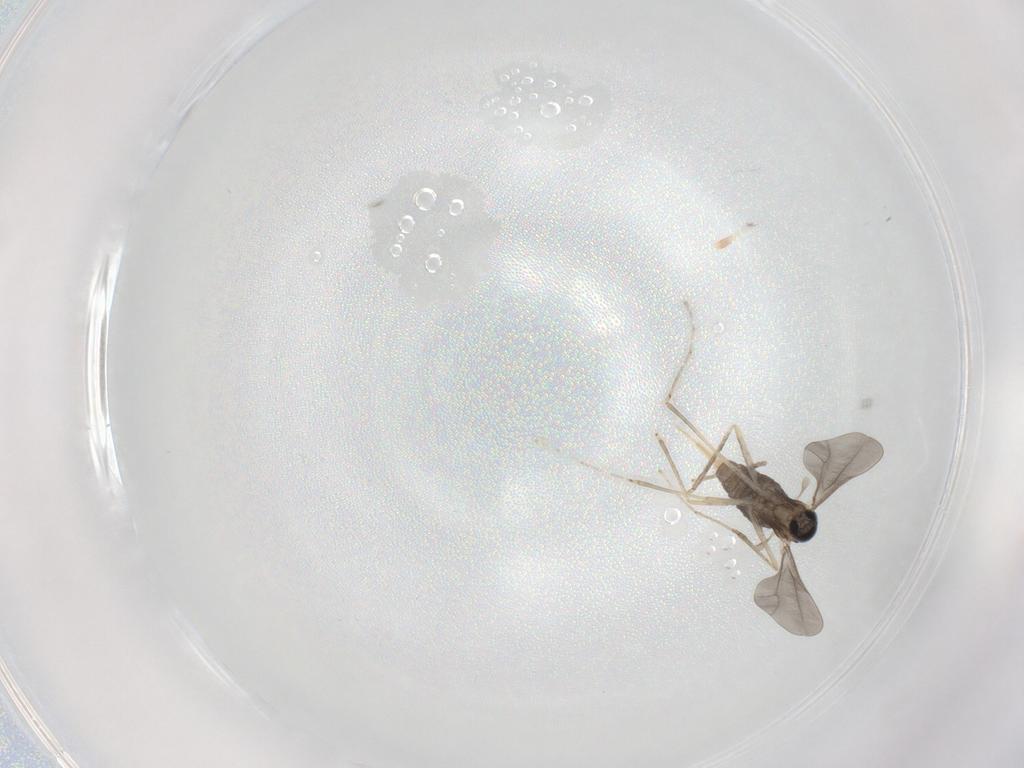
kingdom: Animalia
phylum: Arthropoda
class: Insecta
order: Diptera
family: Cecidomyiidae
